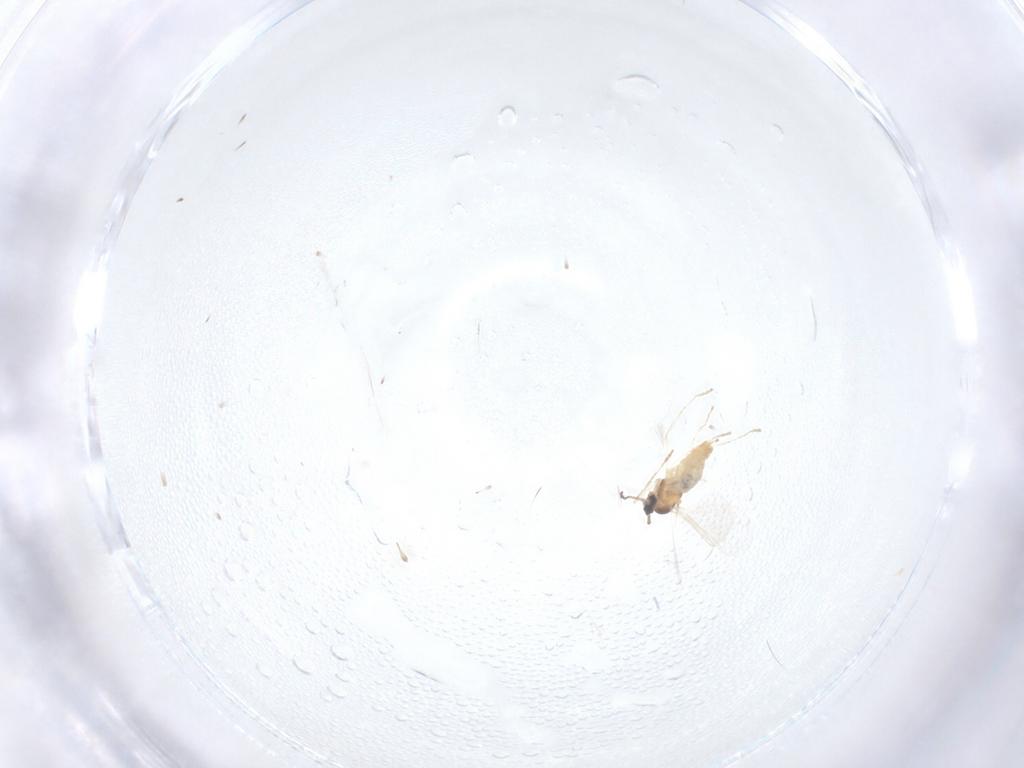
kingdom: Animalia
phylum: Arthropoda
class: Insecta
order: Diptera
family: Cecidomyiidae
